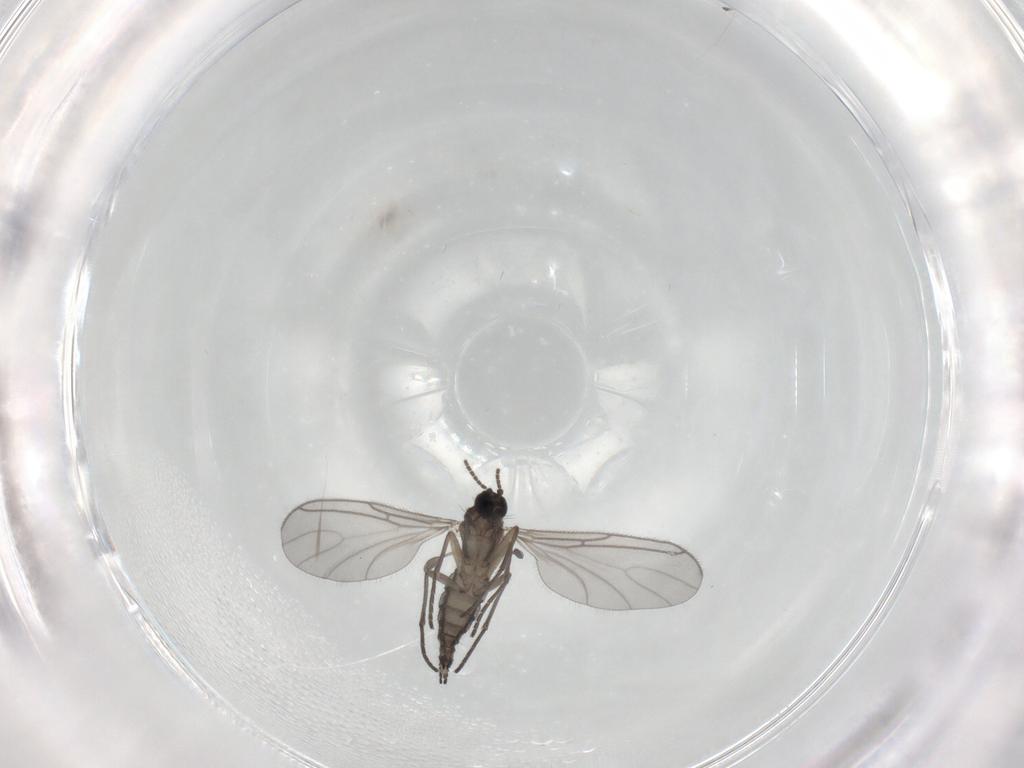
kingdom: Animalia
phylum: Arthropoda
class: Insecta
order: Diptera
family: Sciaridae
